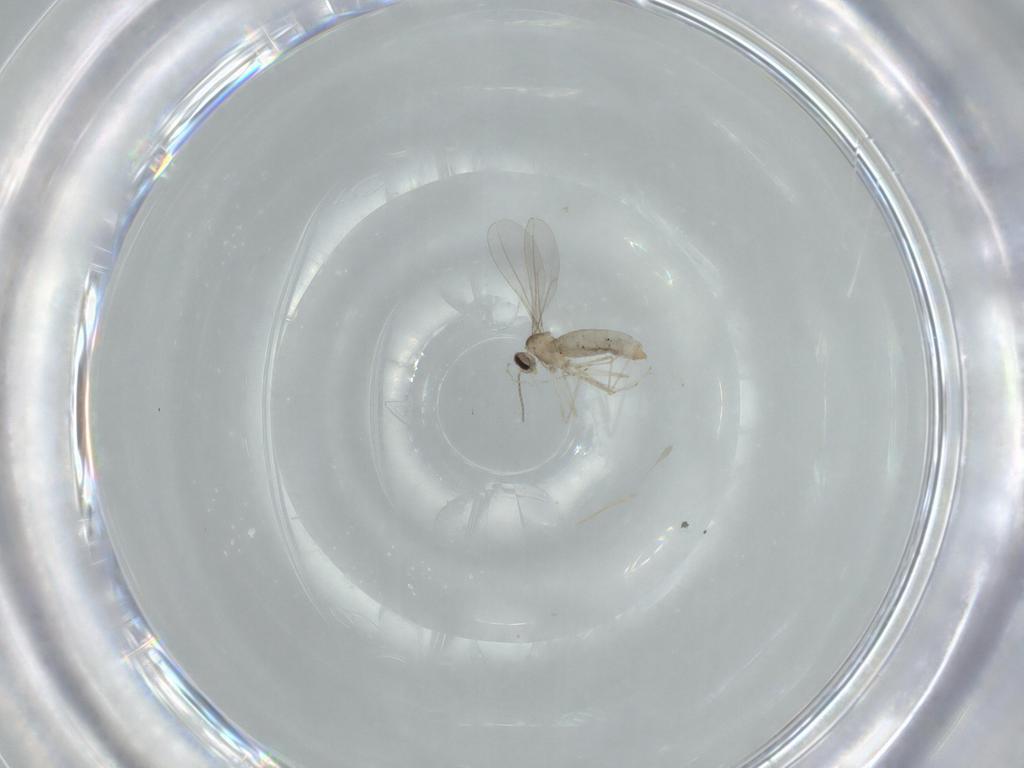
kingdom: Animalia
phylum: Arthropoda
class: Insecta
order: Diptera
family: Cecidomyiidae
